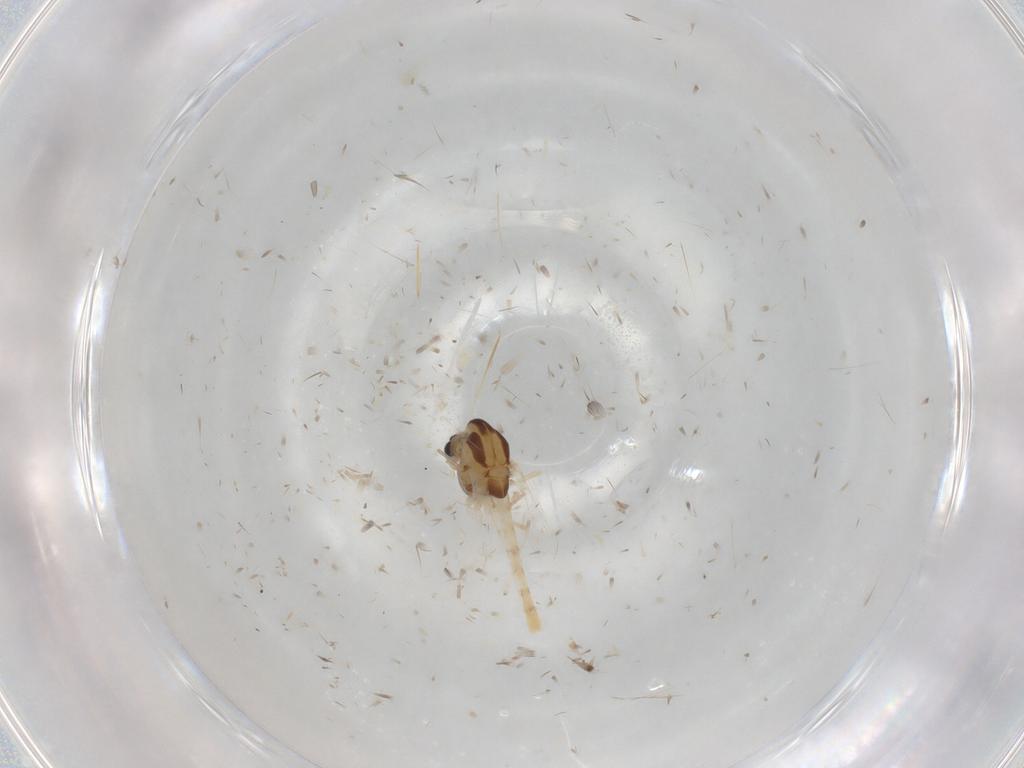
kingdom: Animalia
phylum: Arthropoda
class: Insecta
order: Diptera
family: Chironomidae
